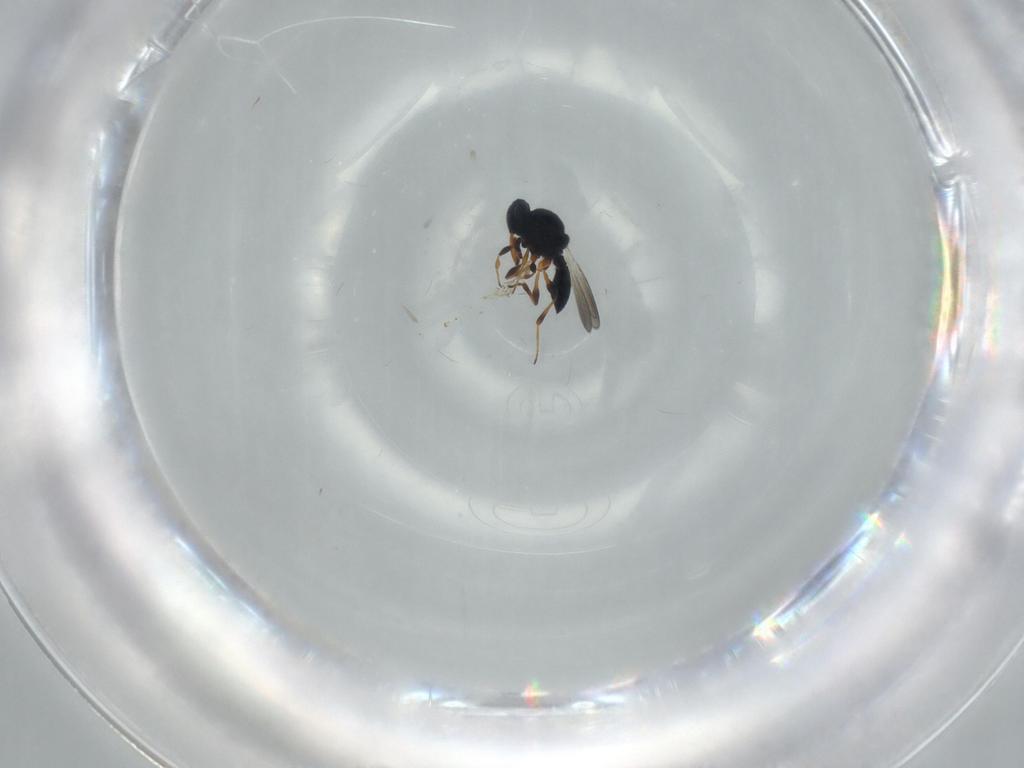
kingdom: Animalia
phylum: Arthropoda
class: Insecta
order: Hymenoptera
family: Platygastridae
